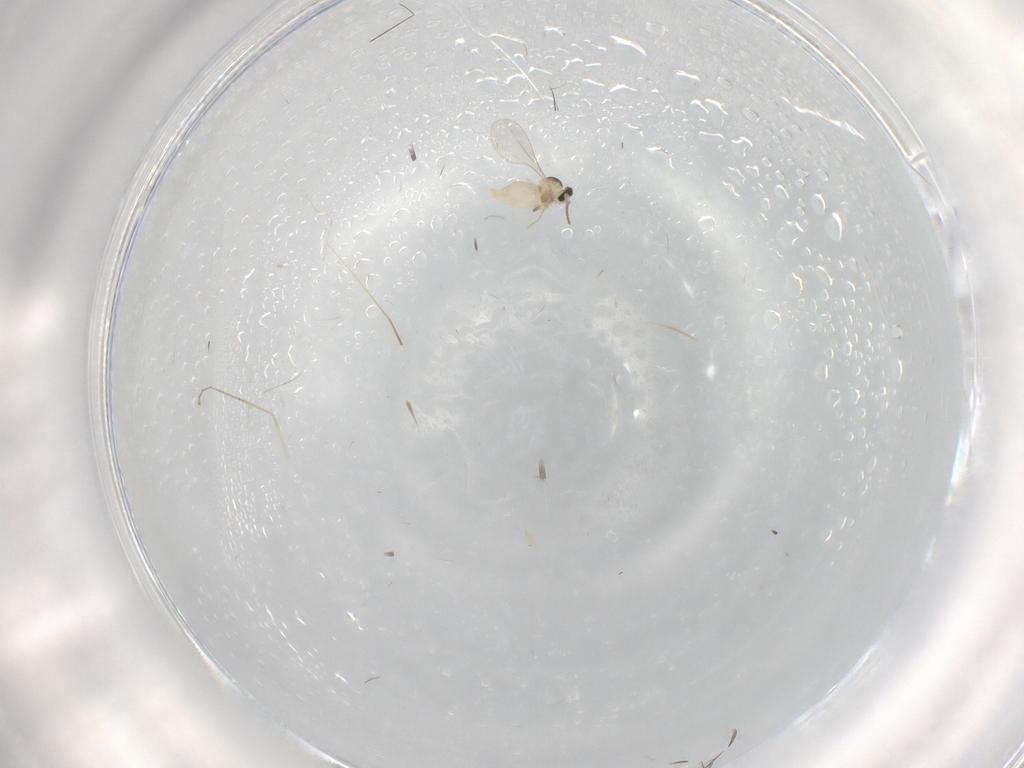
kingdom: Animalia
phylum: Arthropoda
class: Insecta
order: Diptera
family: Cecidomyiidae
